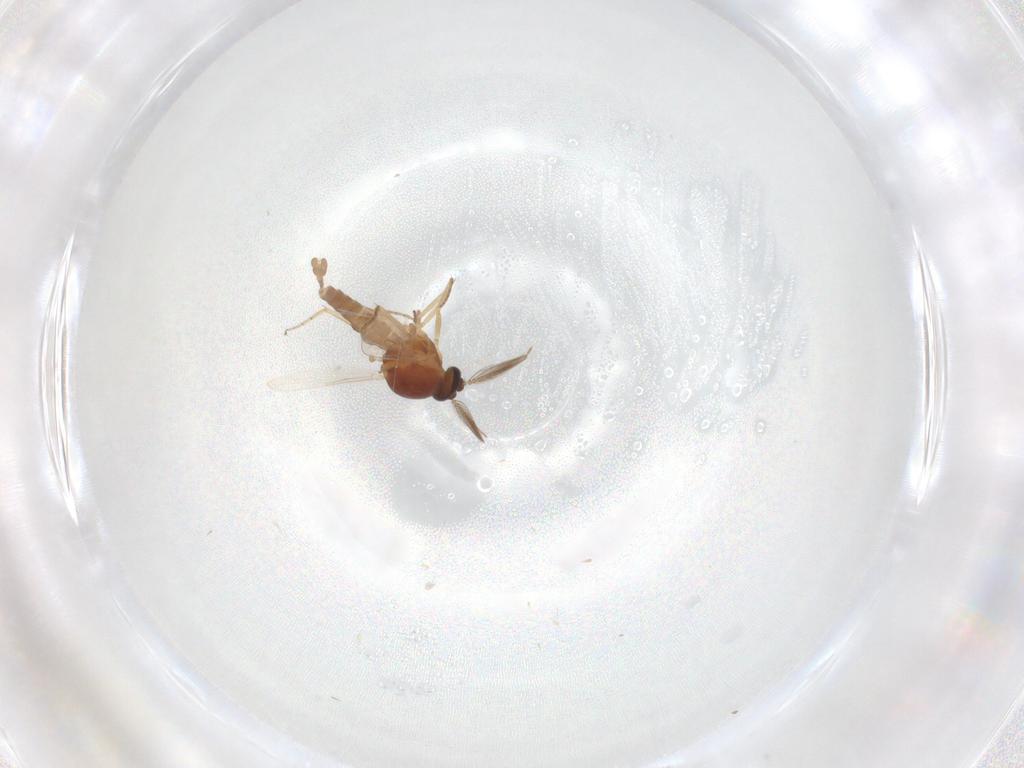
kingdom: Animalia
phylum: Arthropoda
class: Insecta
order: Diptera
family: Ceratopogonidae
